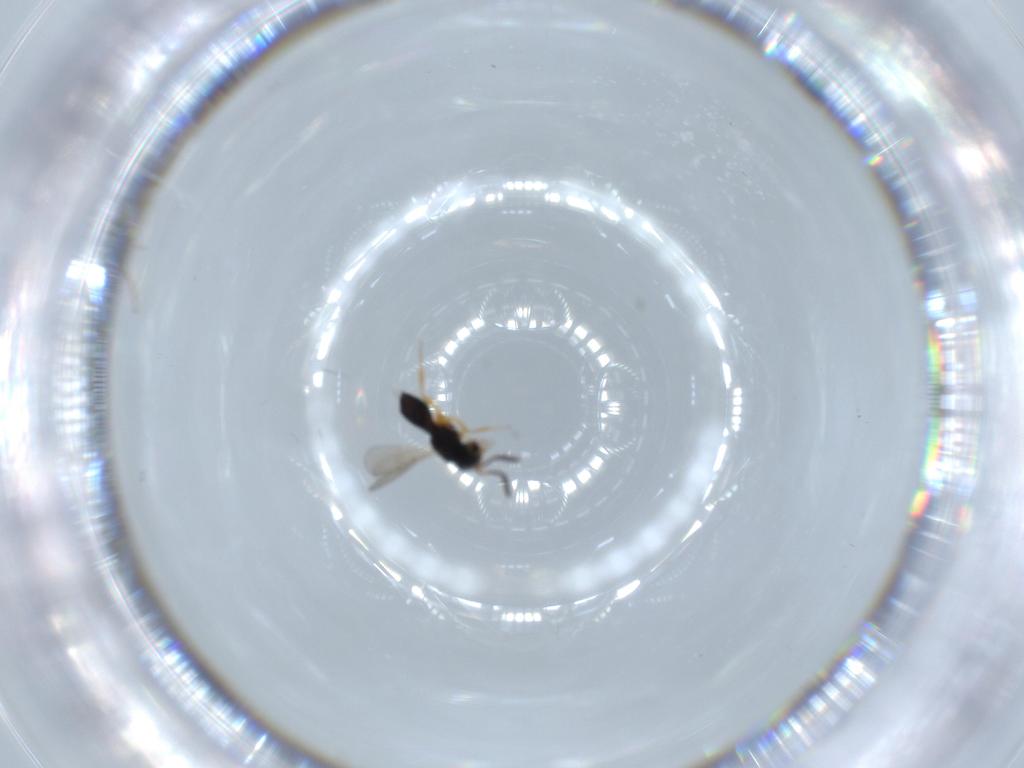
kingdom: Animalia
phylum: Arthropoda
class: Insecta
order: Hymenoptera
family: Scelionidae
